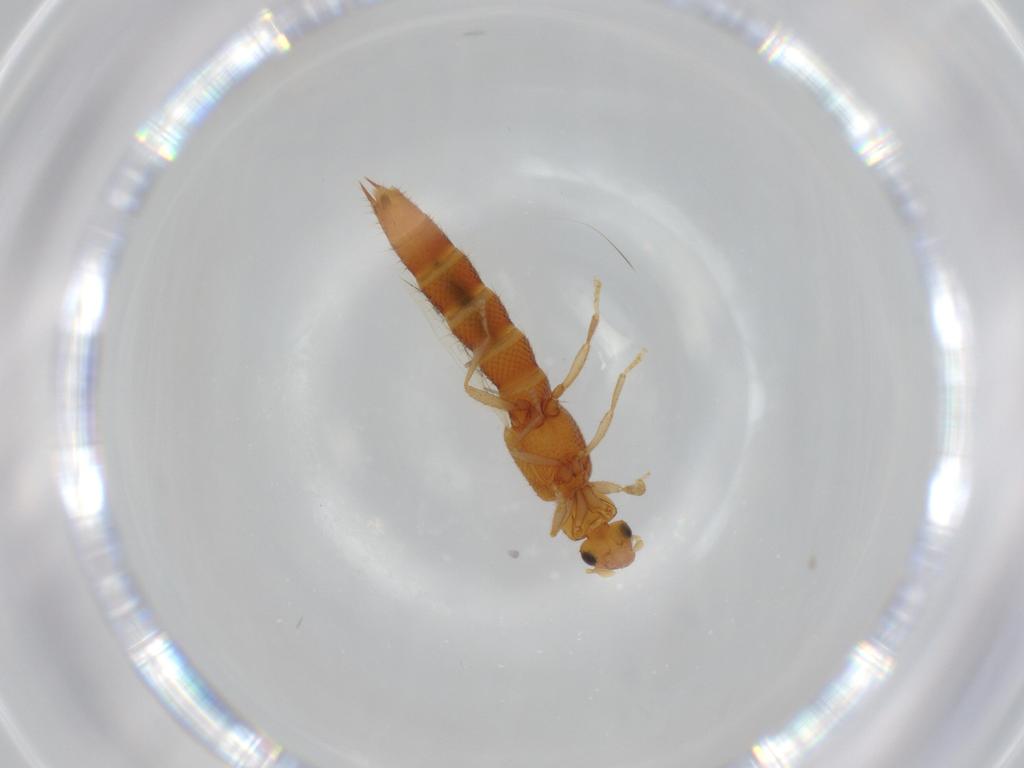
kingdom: Animalia
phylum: Arthropoda
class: Insecta
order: Coleoptera
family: Staphylinidae
